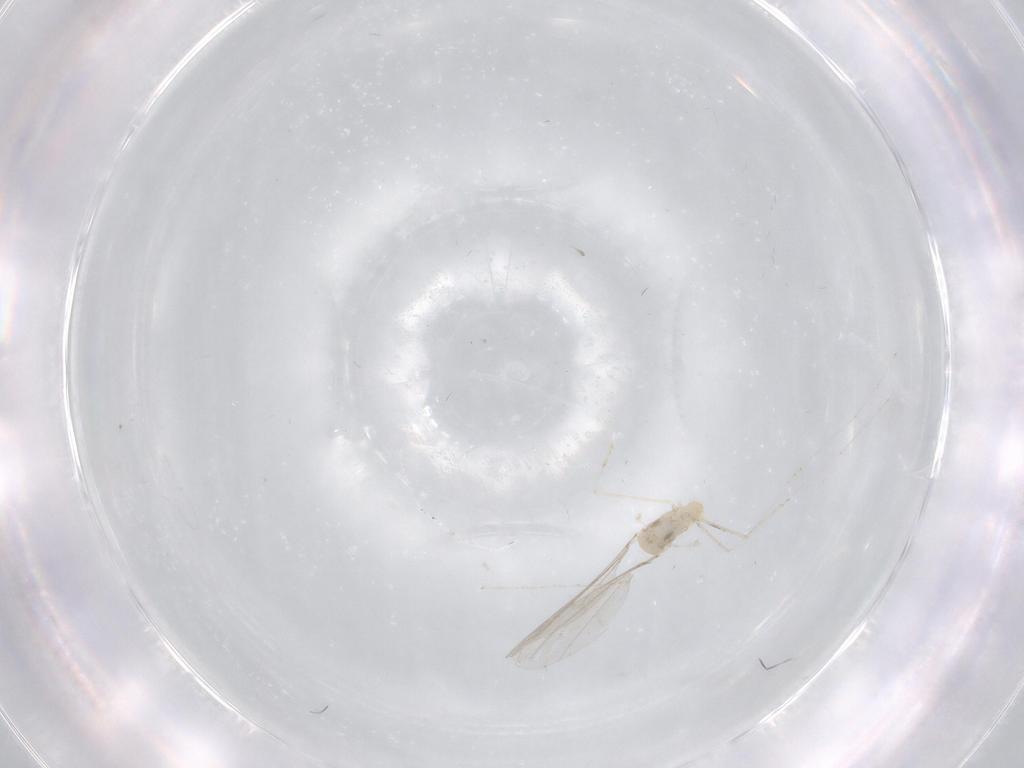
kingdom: Animalia
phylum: Arthropoda
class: Insecta
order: Diptera
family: Cecidomyiidae
